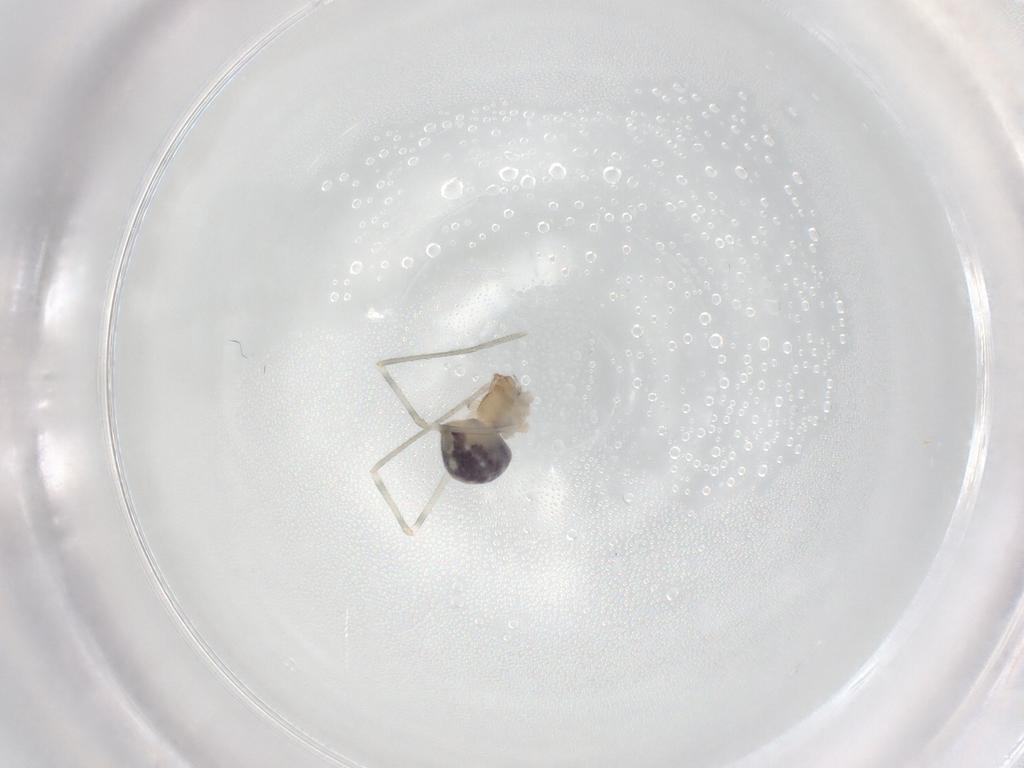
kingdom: Animalia
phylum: Arthropoda
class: Arachnida
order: Araneae
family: Pholcidae
